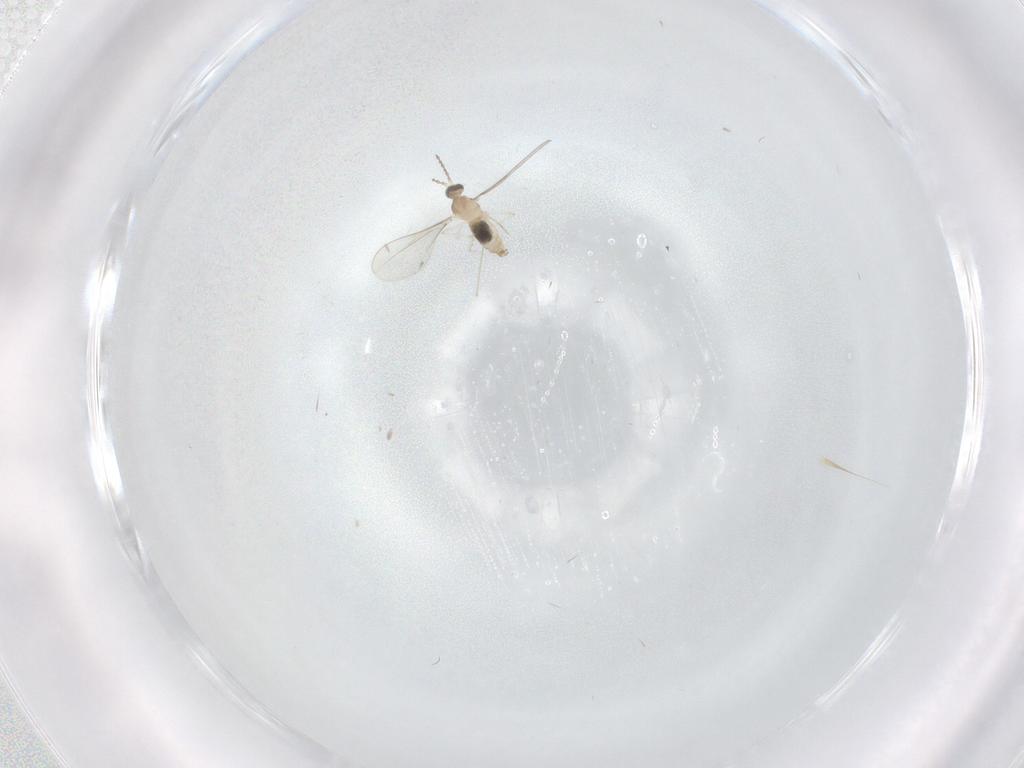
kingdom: Animalia
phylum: Arthropoda
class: Insecta
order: Diptera
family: Cecidomyiidae
